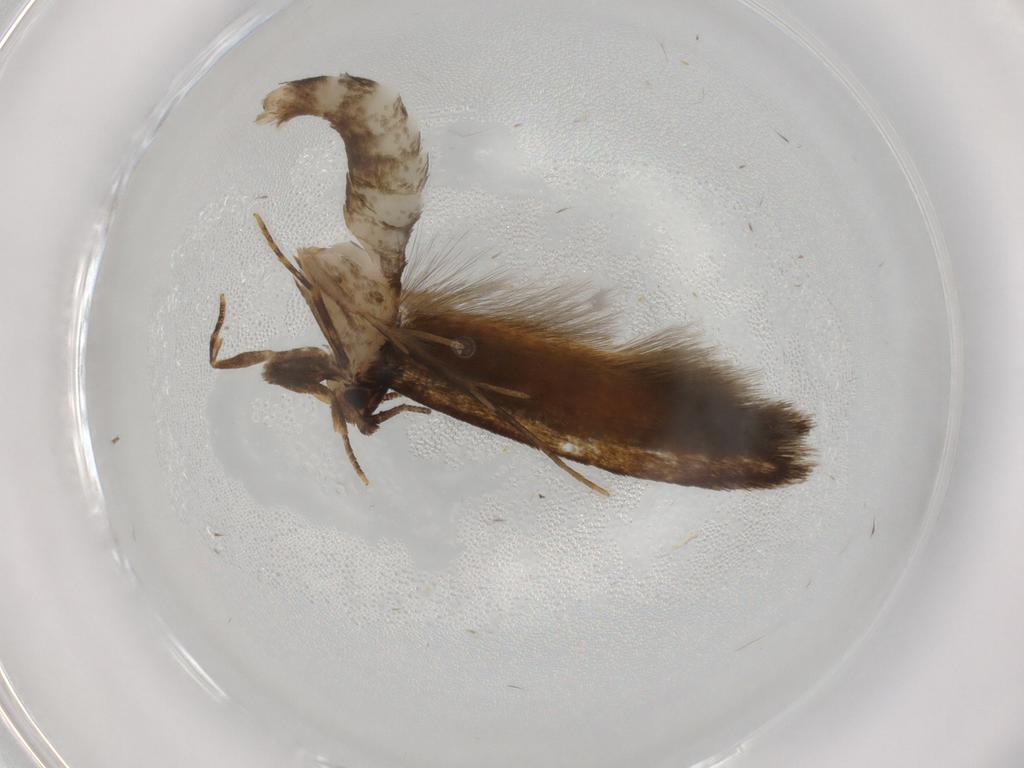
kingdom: Animalia
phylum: Arthropoda
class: Insecta
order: Lepidoptera
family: Tineidae
